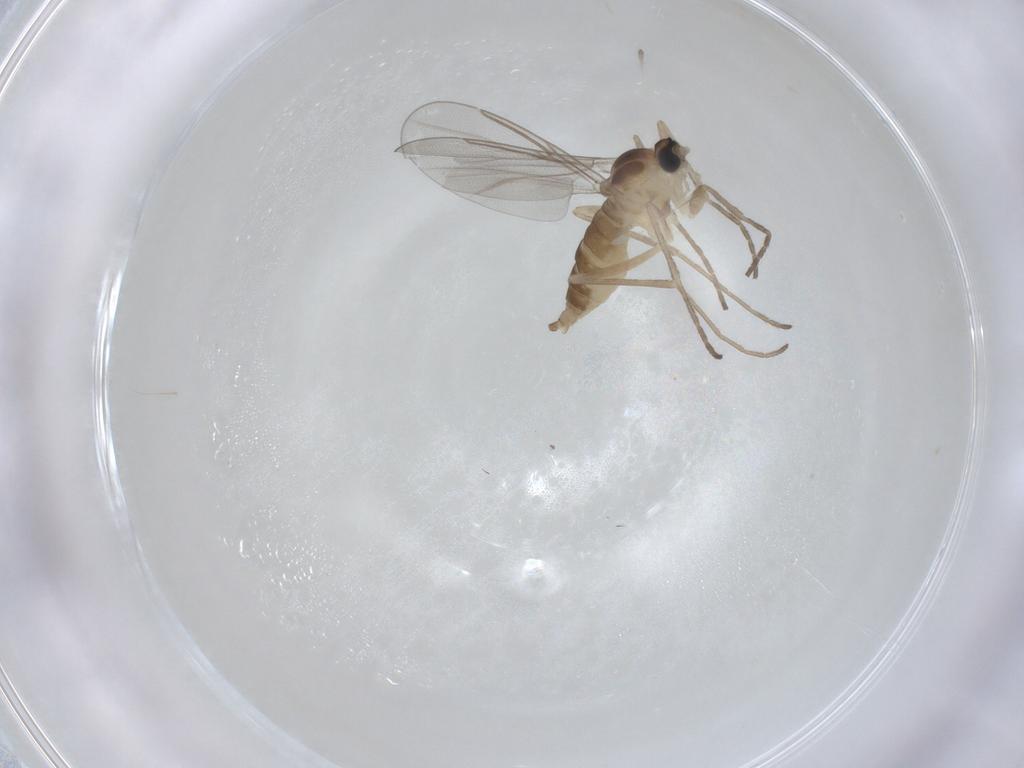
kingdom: Animalia
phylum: Arthropoda
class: Insecta
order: Diptera
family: Cecidomyiidae
